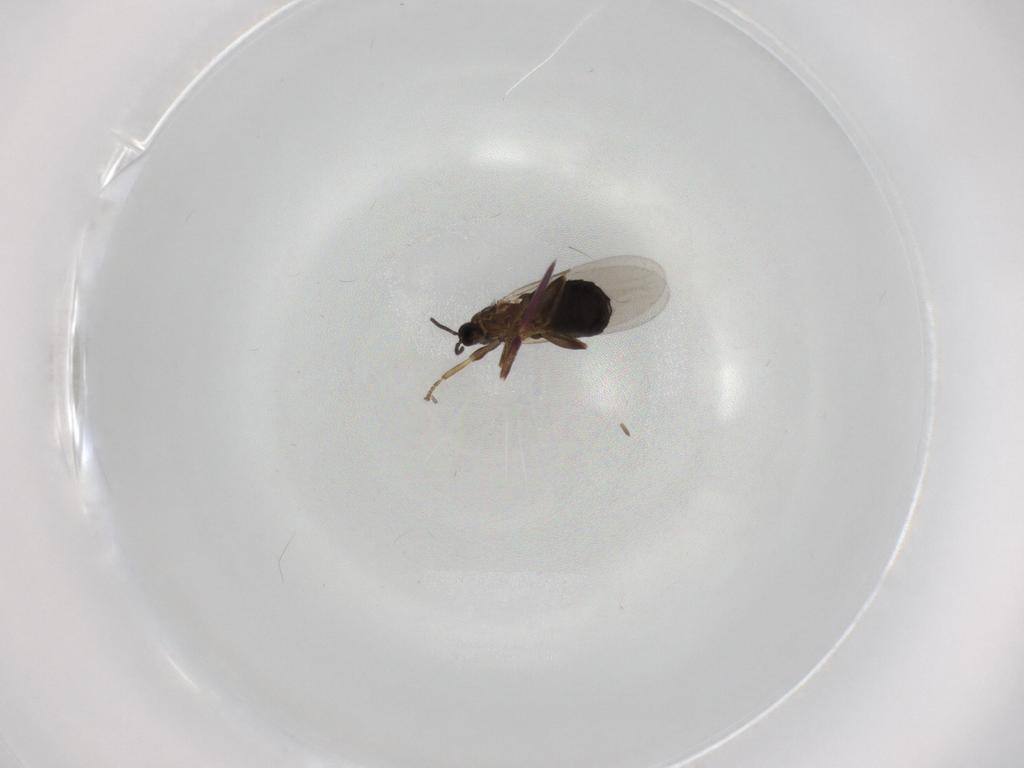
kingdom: Animalia
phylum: Arthropoda
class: Insecta
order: Diptera
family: Scatopsidae
